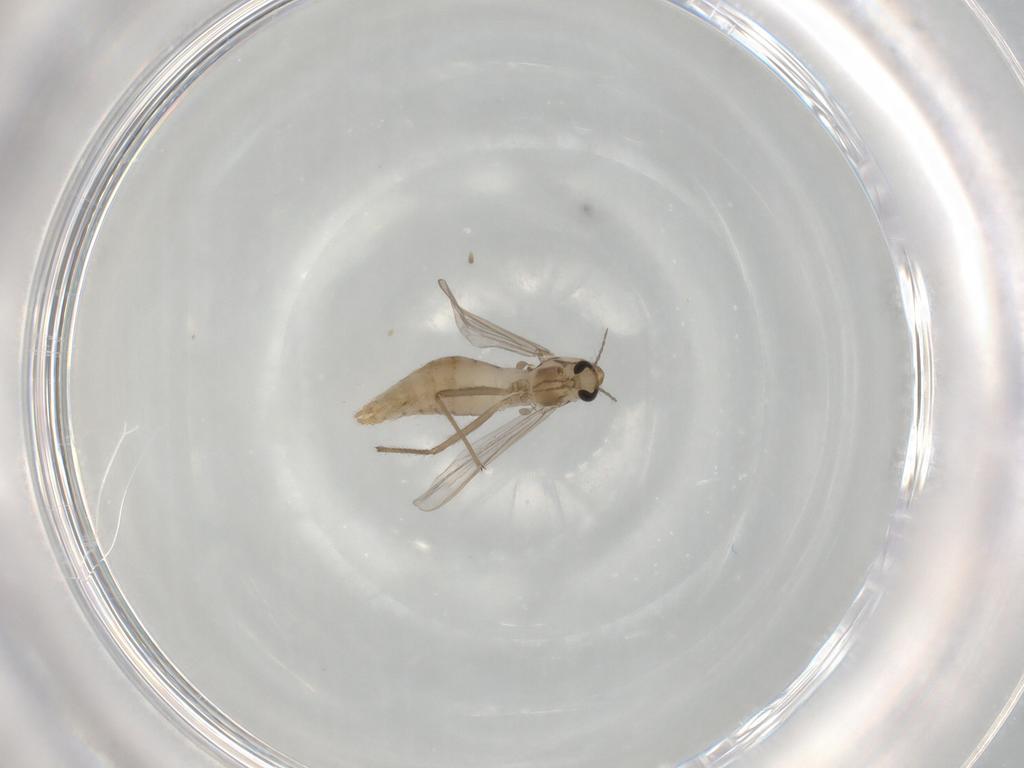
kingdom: Animalia
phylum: Arthropoda
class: Insecta
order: Diptera
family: Chironomidae
